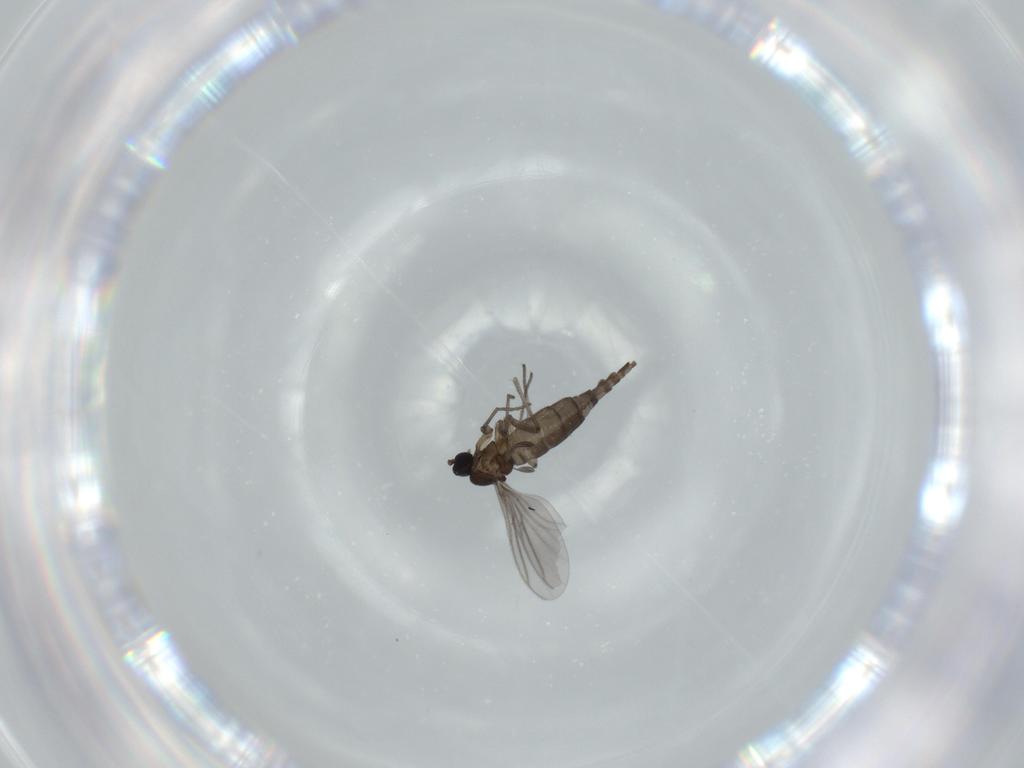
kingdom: Animalia
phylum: Arthropoda
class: Insecta
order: Diptera
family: Sciaridae
